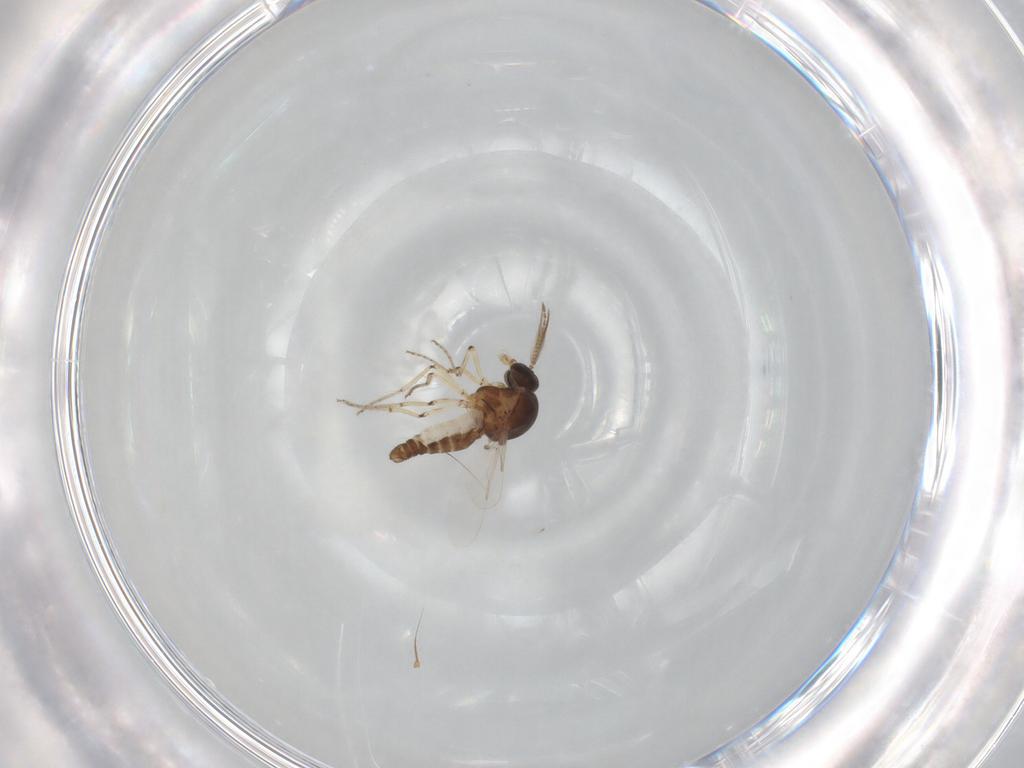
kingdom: Animalia
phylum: Arthropoda
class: Insecta
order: Diptera
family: Ceratopogonidae
